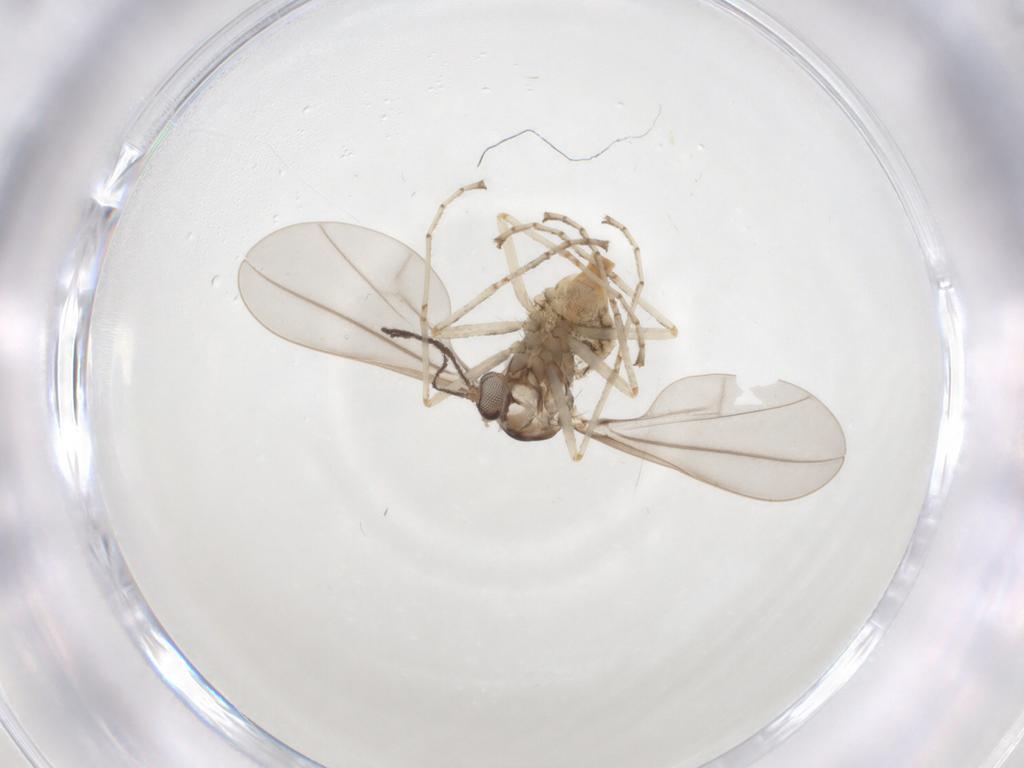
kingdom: Animalia
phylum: Arthropoda
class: Insecta
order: Diptera
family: Cecidomyiidae
